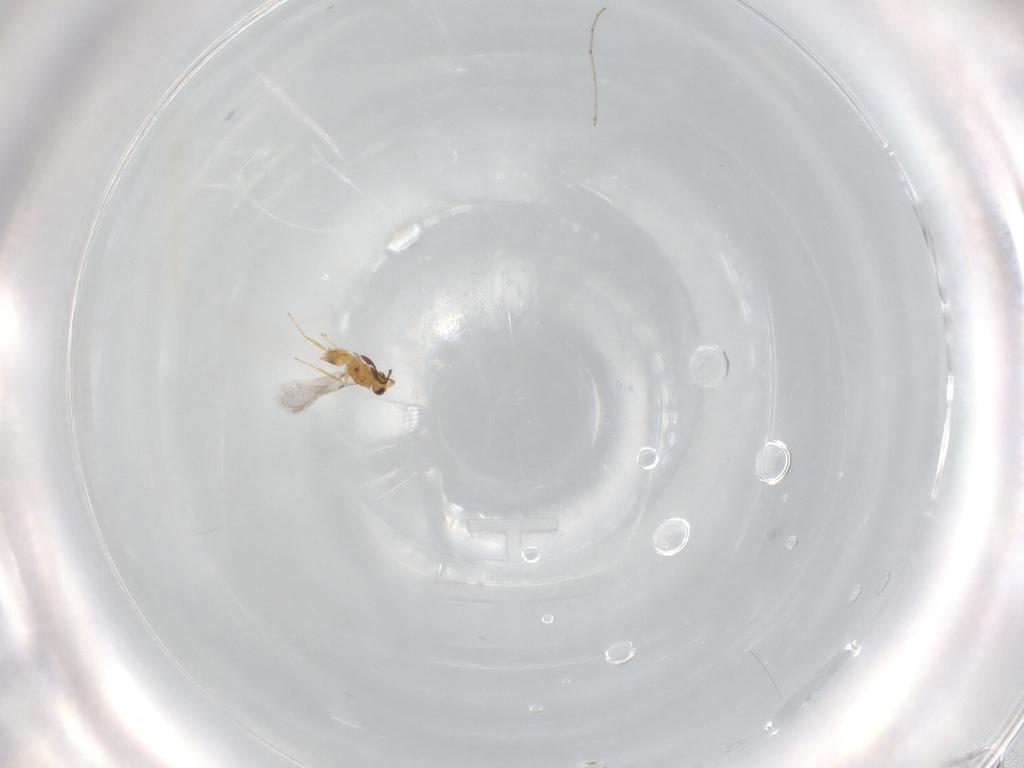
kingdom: Animalia
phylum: Arthropoda
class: Insecta
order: Hymenoptera
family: Mymaridae
